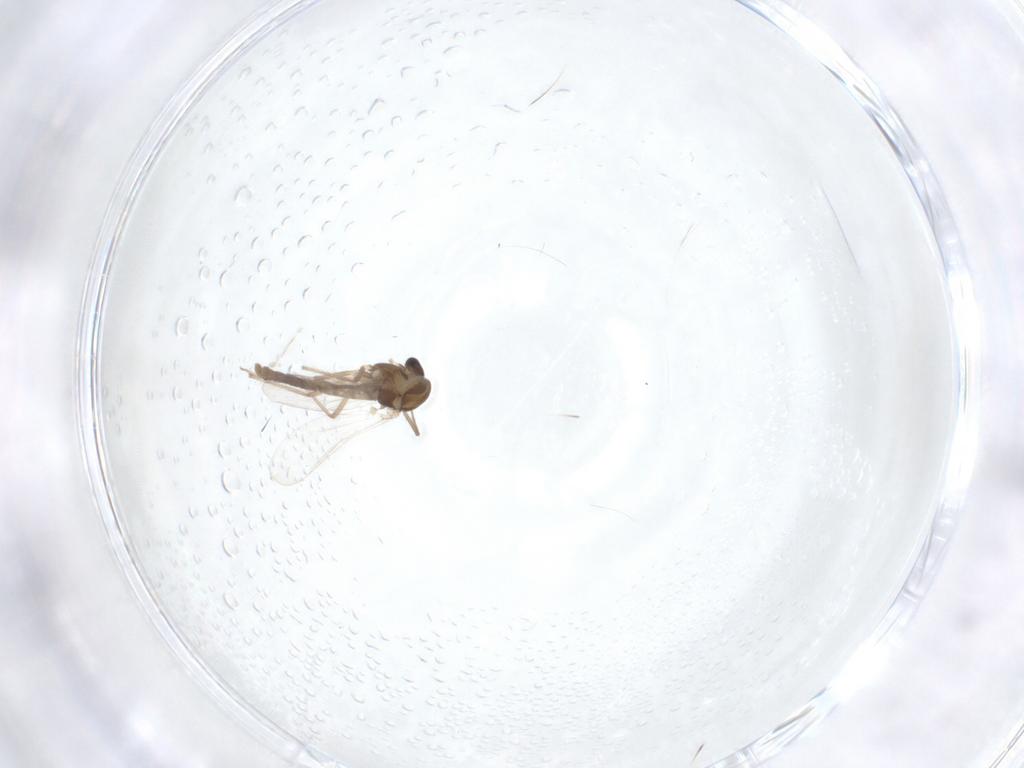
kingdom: Animalia
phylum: Arthropoda
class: Insecta
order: Diptera
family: Chironomidae
